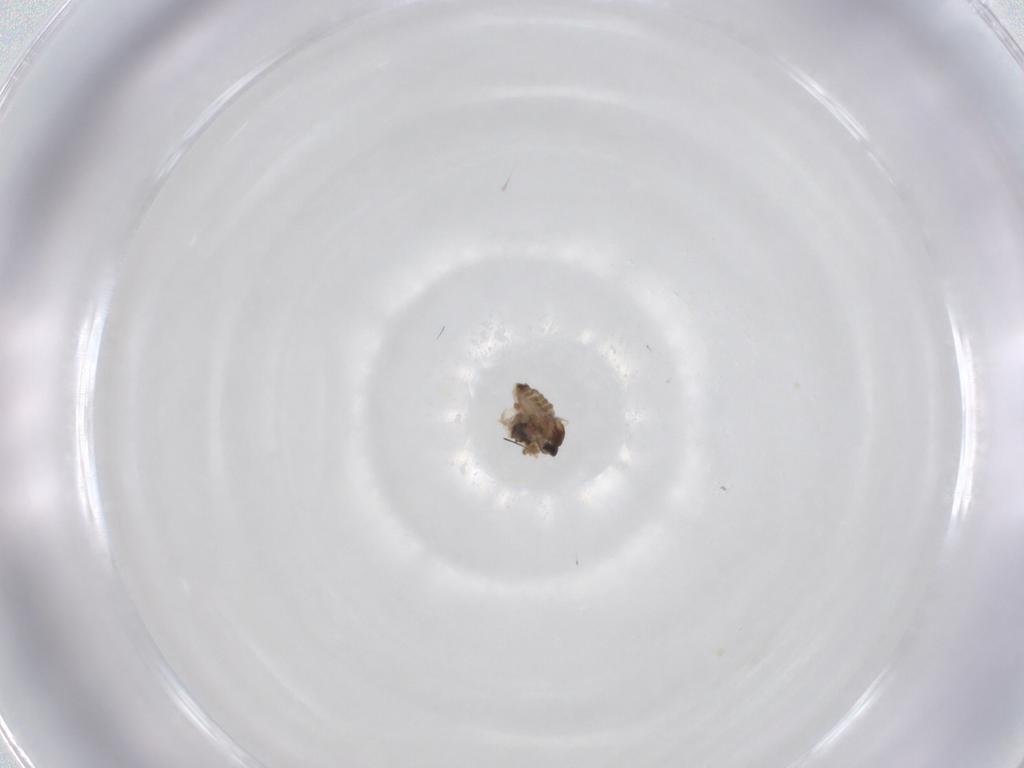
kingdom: Animalia
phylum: Arthropoda
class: Insecta
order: Diptera
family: Cecidomyiidae
